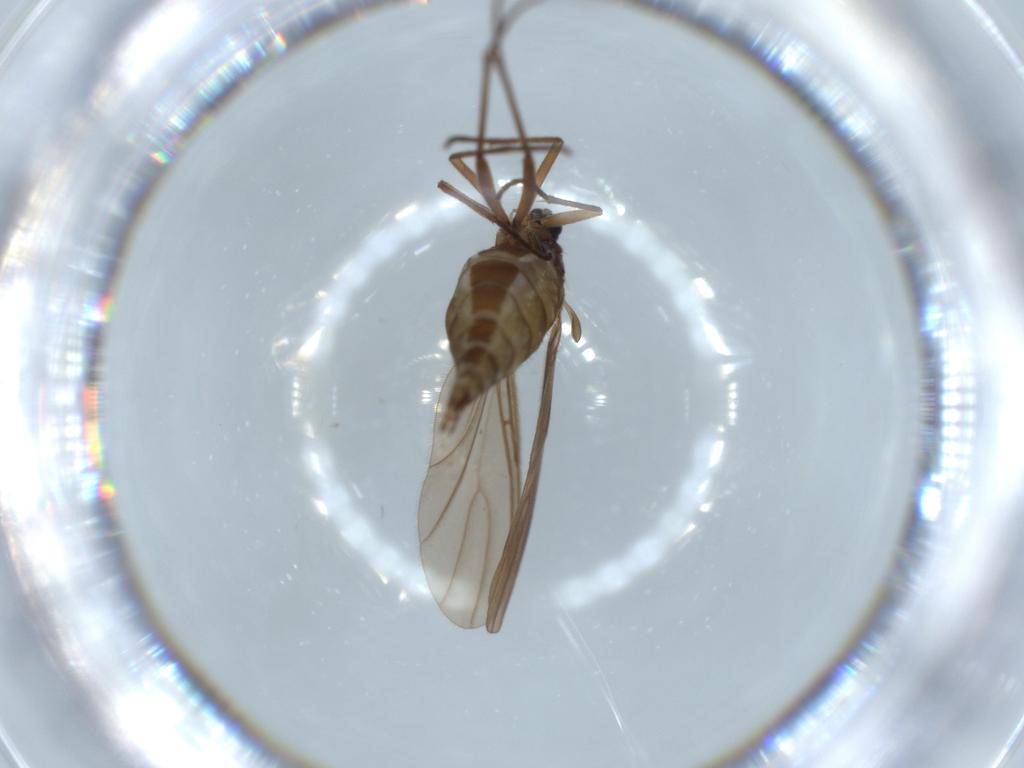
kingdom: Animalia
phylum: Arthropoda
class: Insecta
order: Diptera
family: Sciaridae
